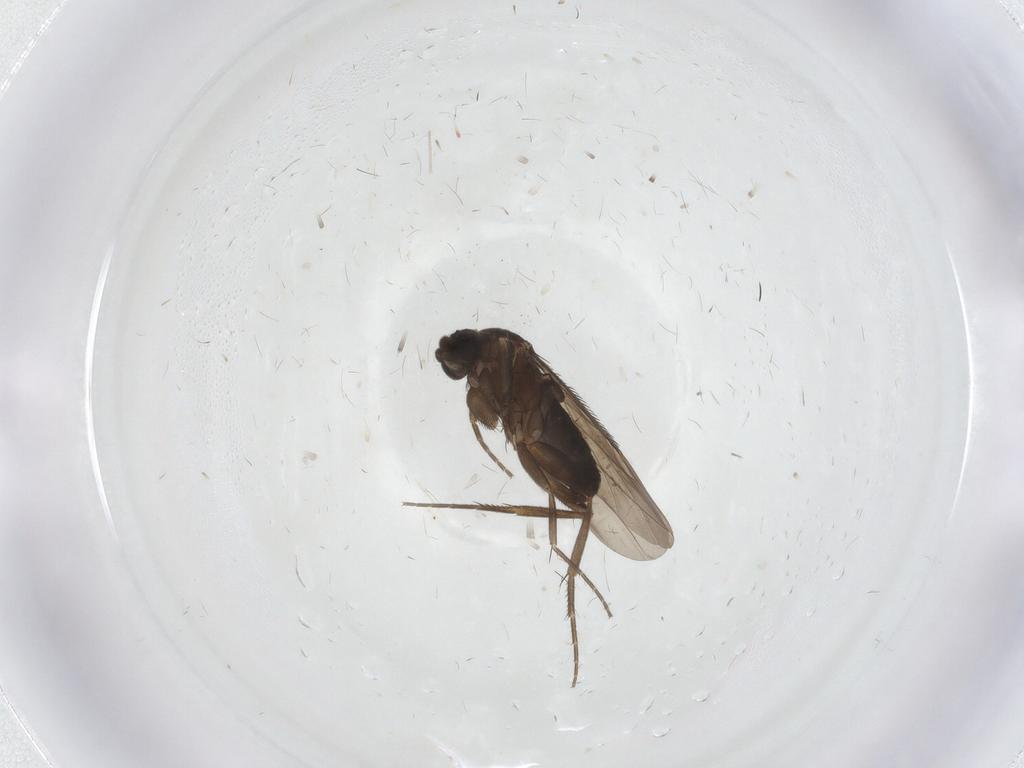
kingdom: Animalia
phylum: Arthropoda
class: Insecta
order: Diptera
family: Cecidomyiidae
